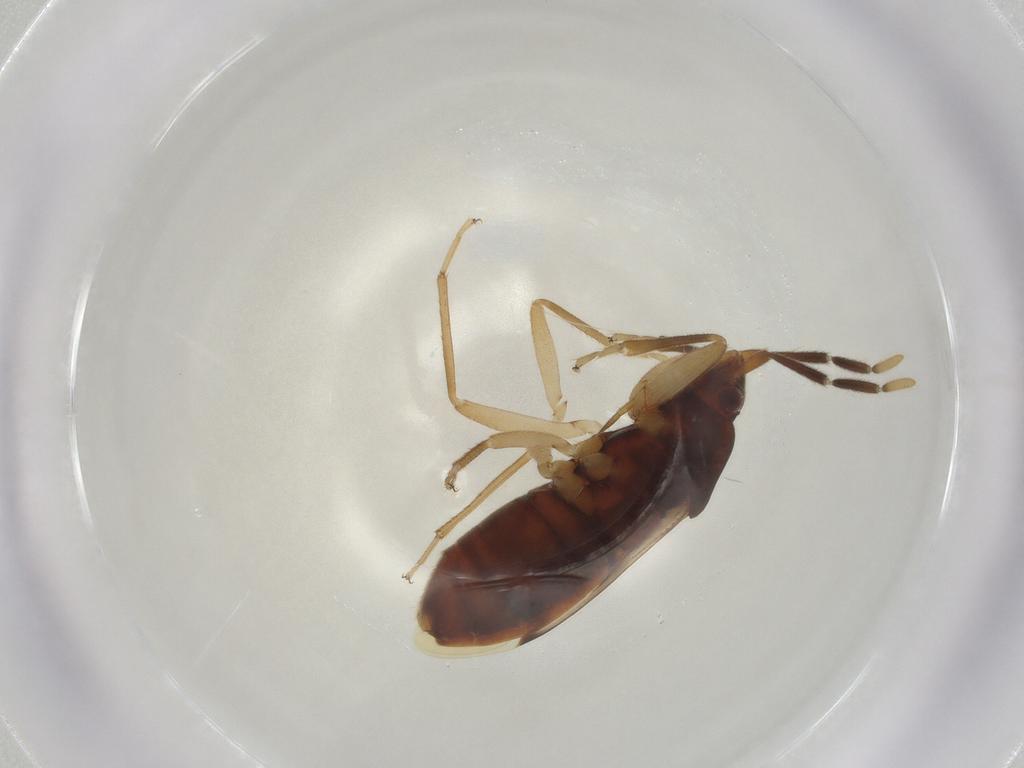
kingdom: Animalia
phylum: Arthropoda
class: Insecta
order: Hemiptera
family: Rhyparochromidae
